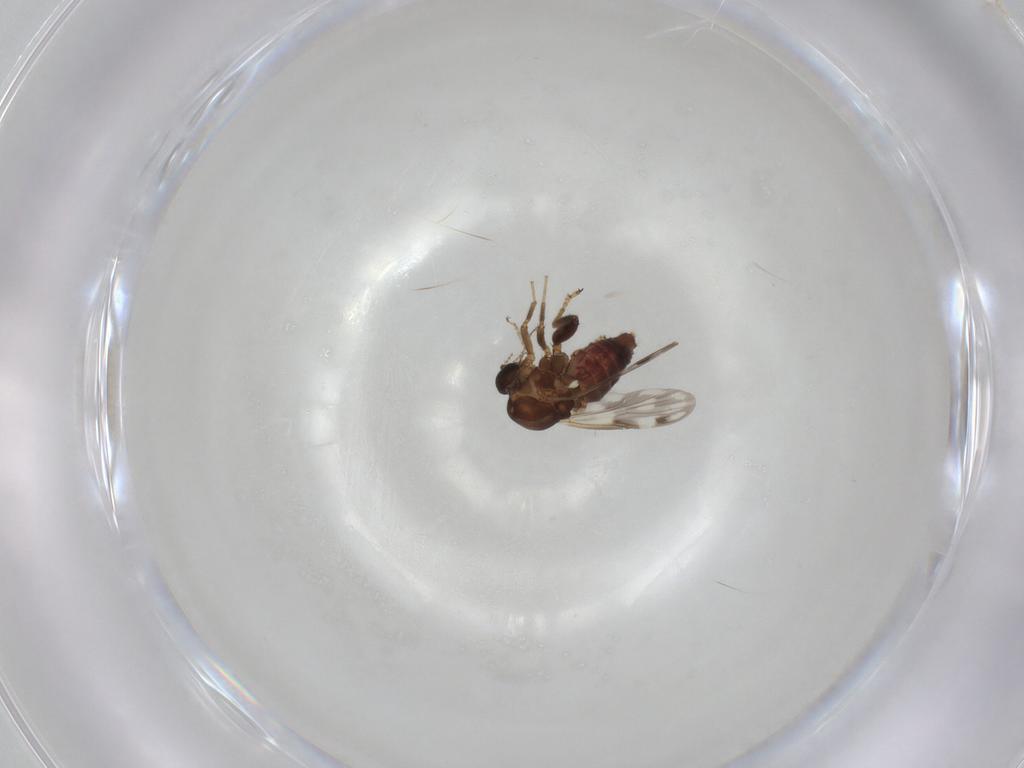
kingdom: Animalia
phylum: Arthropoda
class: Insecta
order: Diptera
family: Ceratopogonidae
